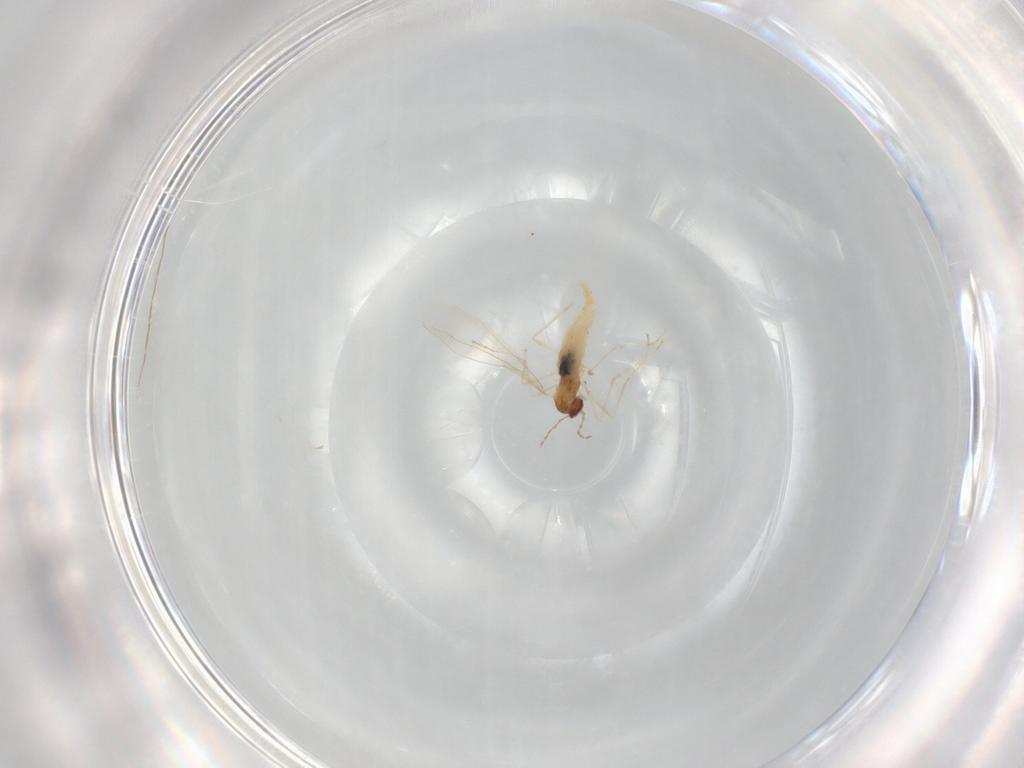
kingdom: Animalia
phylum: Arthropoda
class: Insecta
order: Diptera
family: Cecidomyiidae
